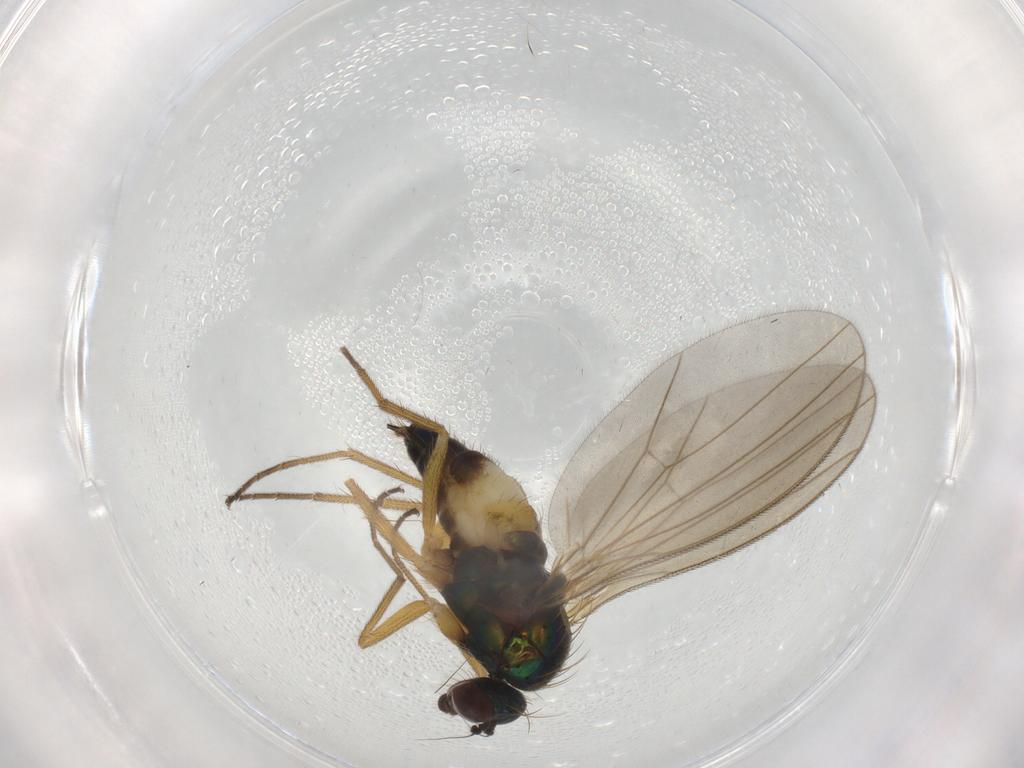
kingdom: Animalia
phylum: Arthropoda
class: Insecta
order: Diptera
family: Dolichopodidae
